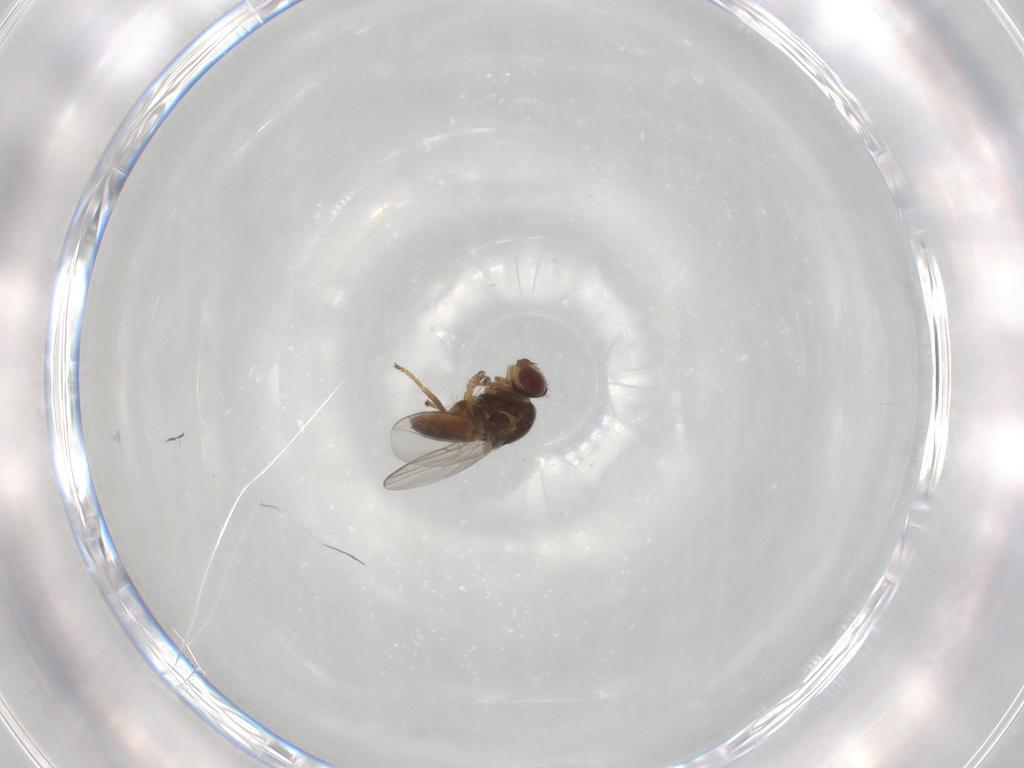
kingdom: Animalia
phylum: Arthropoda
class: Insecta
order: Diptera
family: Chloropidae
